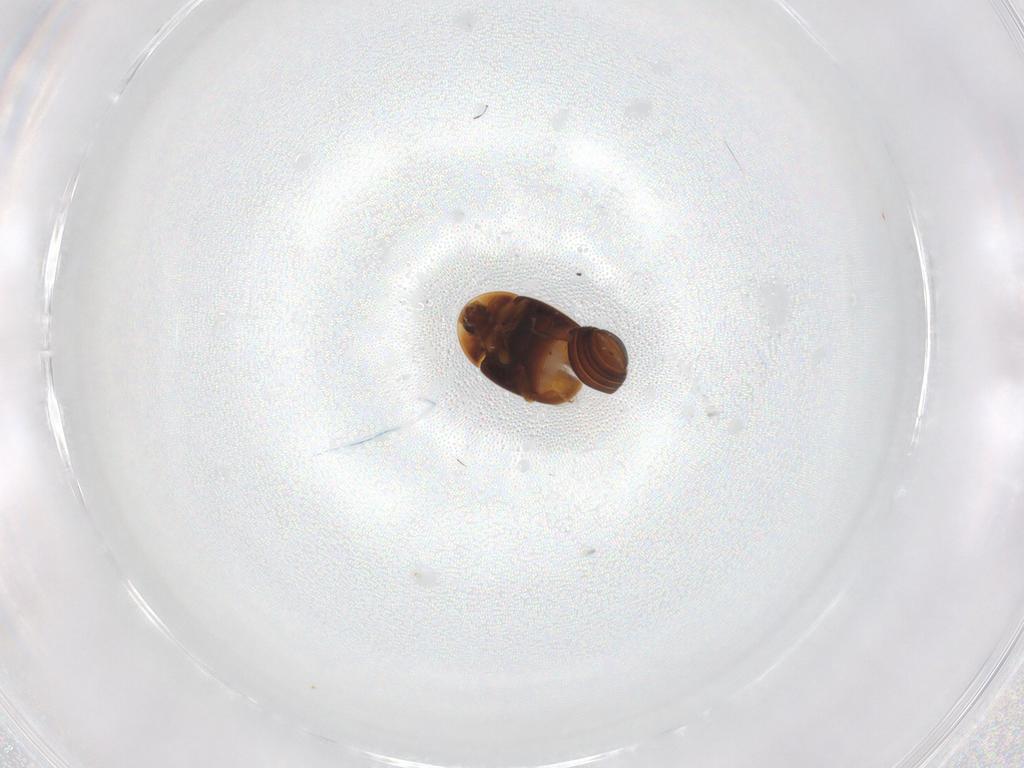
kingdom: Animalia
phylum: Arthropoda
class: Insecta
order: Coleoptera
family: Corylophidae
